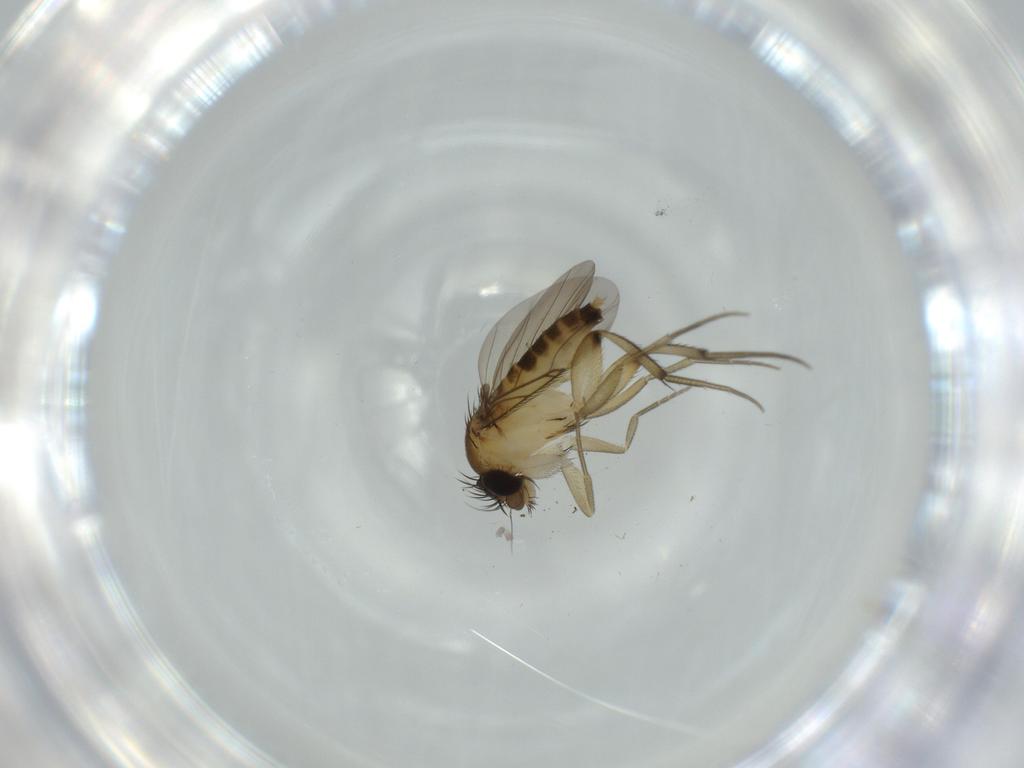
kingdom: Animalia
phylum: Arthropoda
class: Insecta
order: Diptera
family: Phoridae
